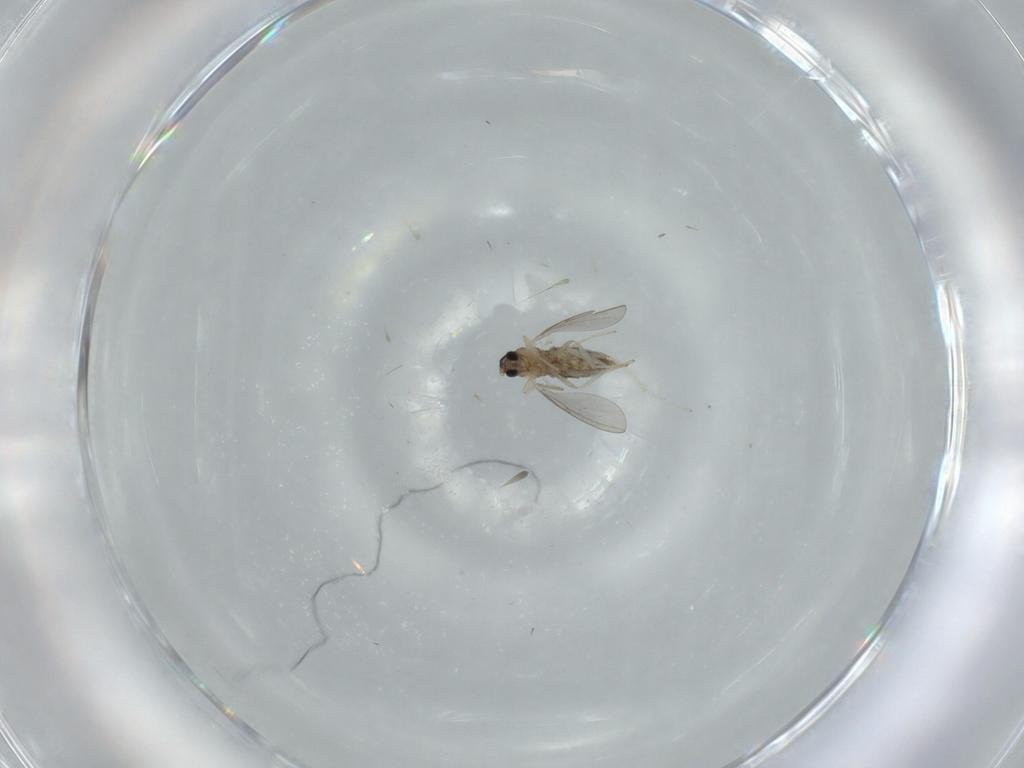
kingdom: Animalia
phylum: Arthropoda
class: Insecta
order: Diptera
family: Cecidomyiidae
